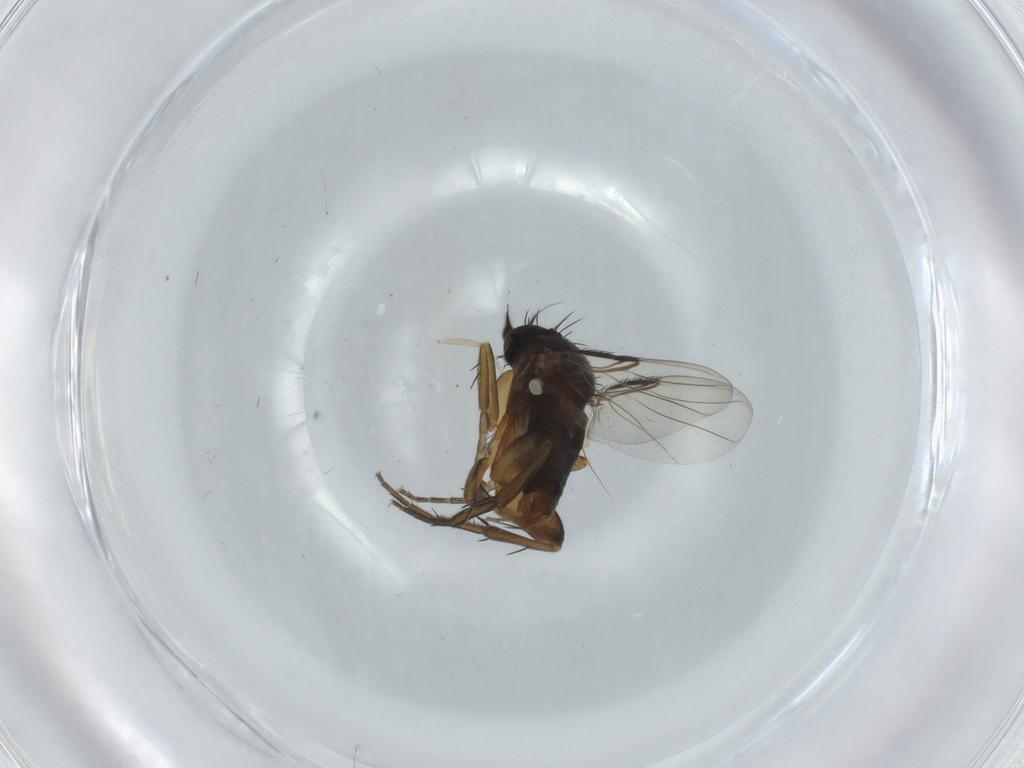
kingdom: Animalia
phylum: Arthropoda
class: Insecta
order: Diptera
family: Phoridae
